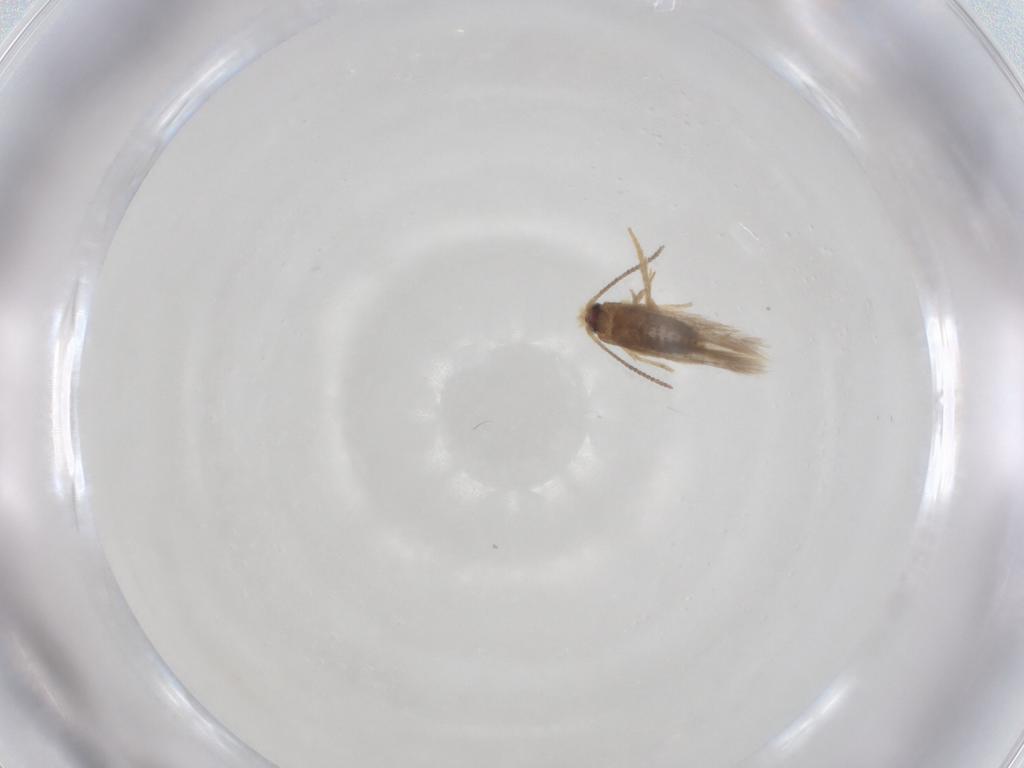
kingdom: Animalia
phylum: Arthropoda
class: Insecta
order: Lepidoptera
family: Nepticulidae
